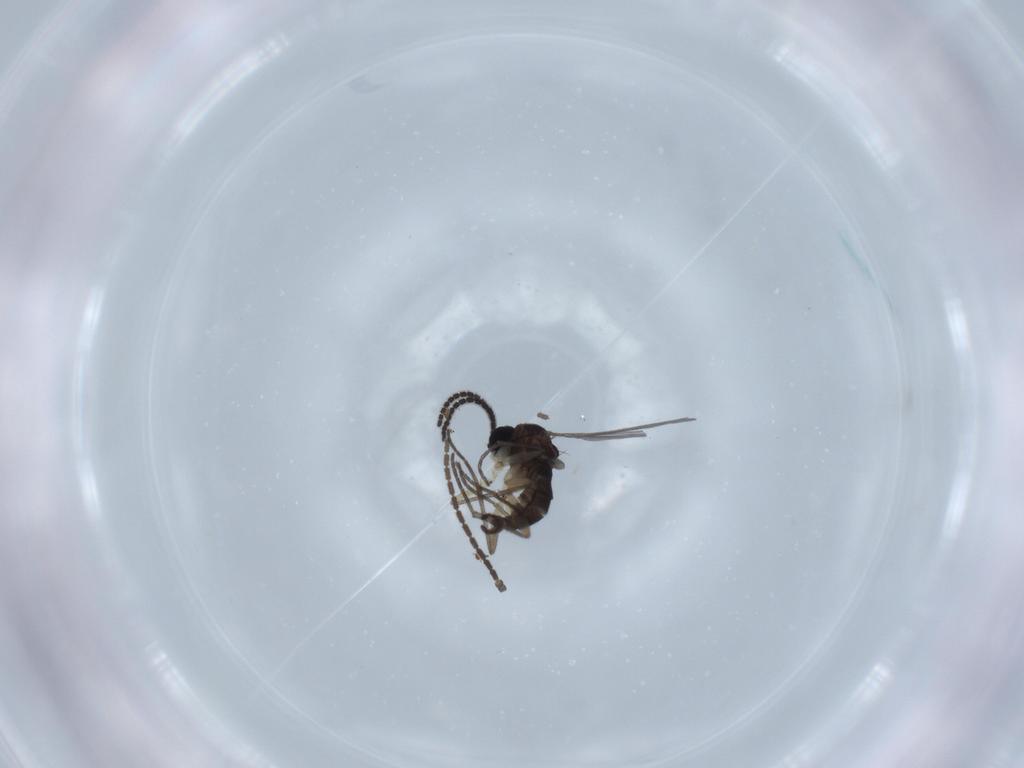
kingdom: Animalia
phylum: Arthropoda
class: Insecta
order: Diptera
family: Sciaridae
